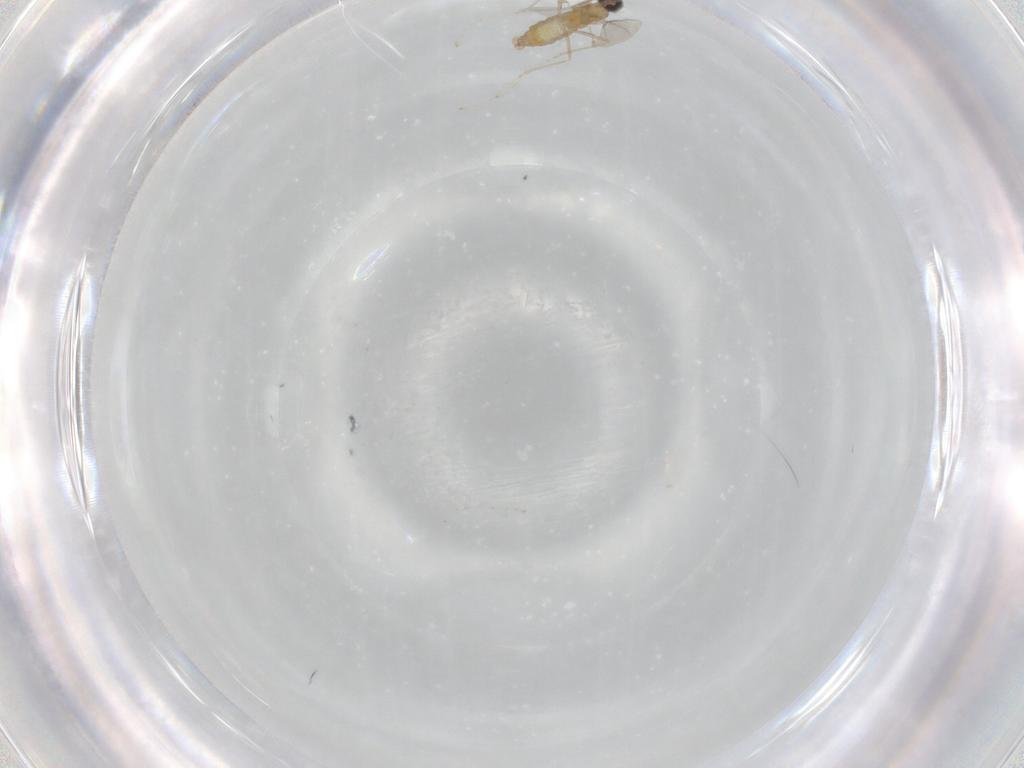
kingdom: Animalia
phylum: Arthropoda
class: Insecta
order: Diptera
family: Cecidomyiidae
